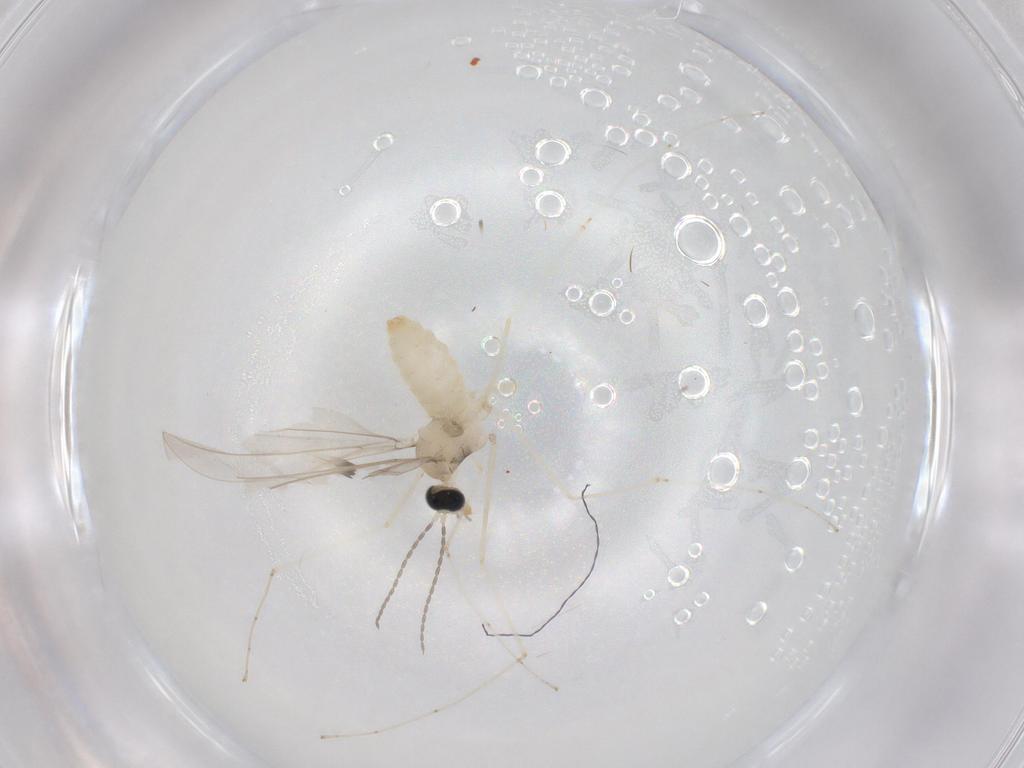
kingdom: Animalia
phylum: Arthropoda
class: Insecta
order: Diptera
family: Cecidomyiidae
